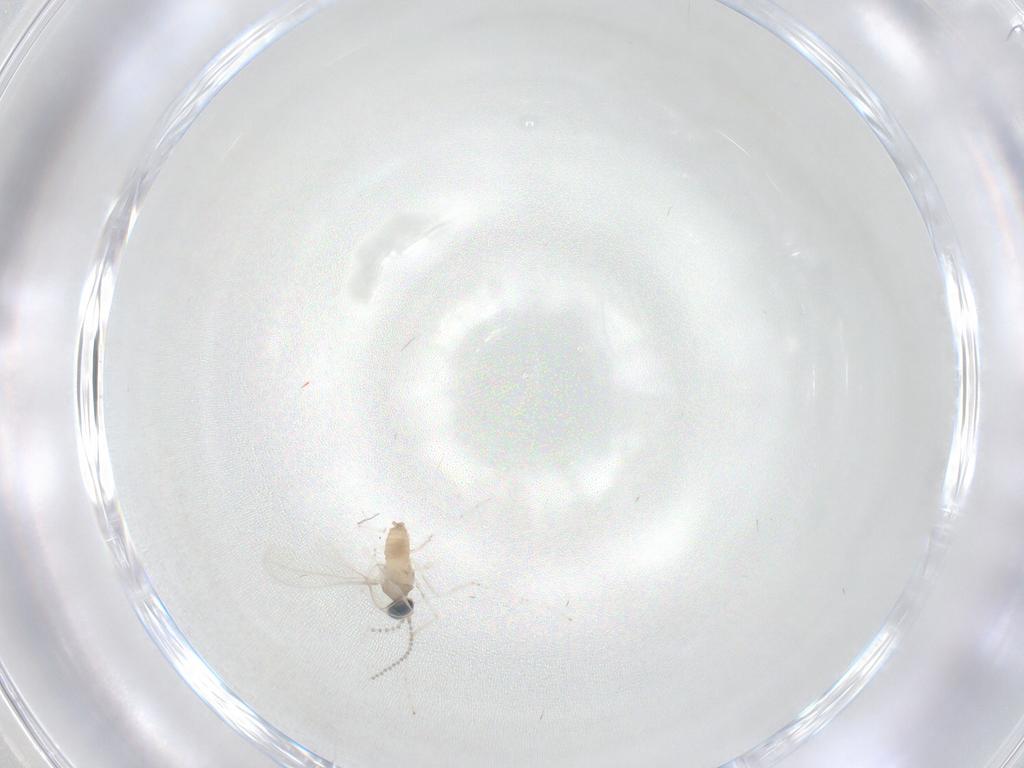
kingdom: Animalia
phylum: Arthropoda
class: Insecta
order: Diptera
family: Cecidomyiidae
